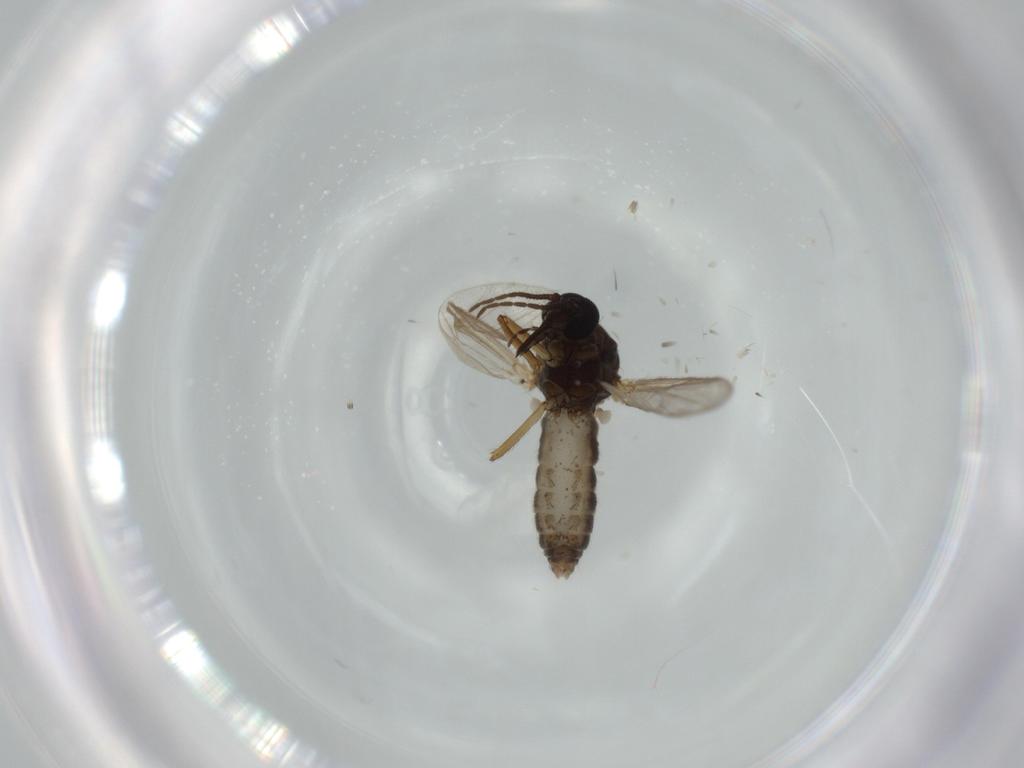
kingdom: Animalia
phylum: Arthropoda
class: Insecta
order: Diptera
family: Ceratopogonidae
